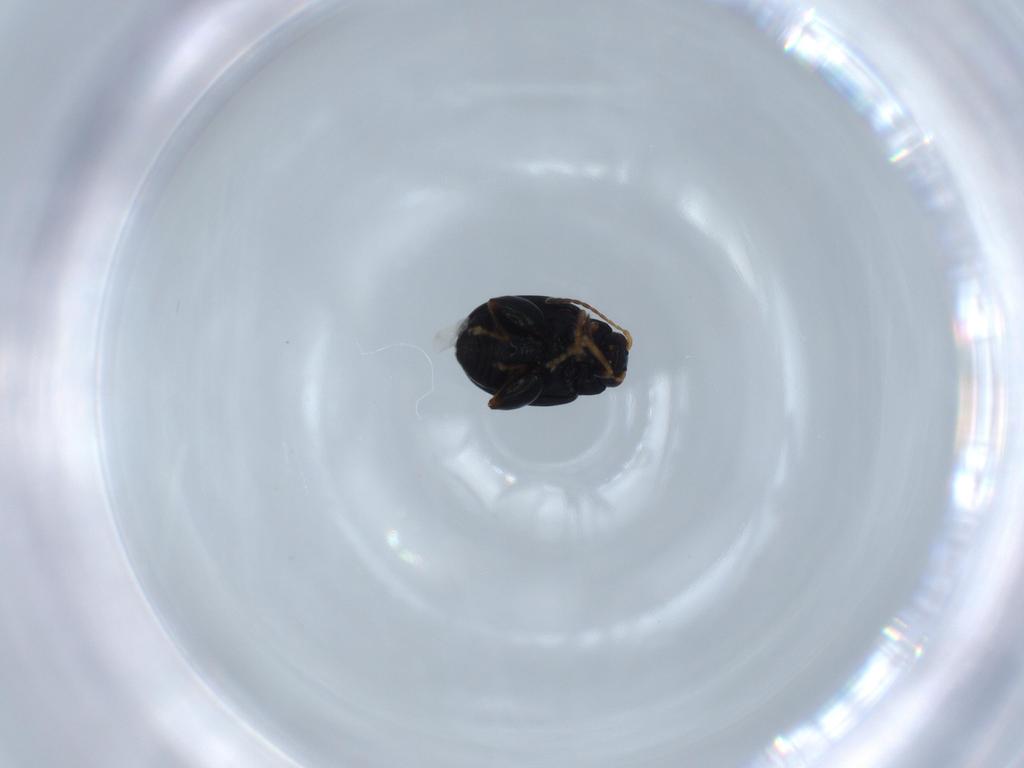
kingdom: Animalia
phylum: Arthropoda
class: Insecta
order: Coleoptera
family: Chrysomelidae
